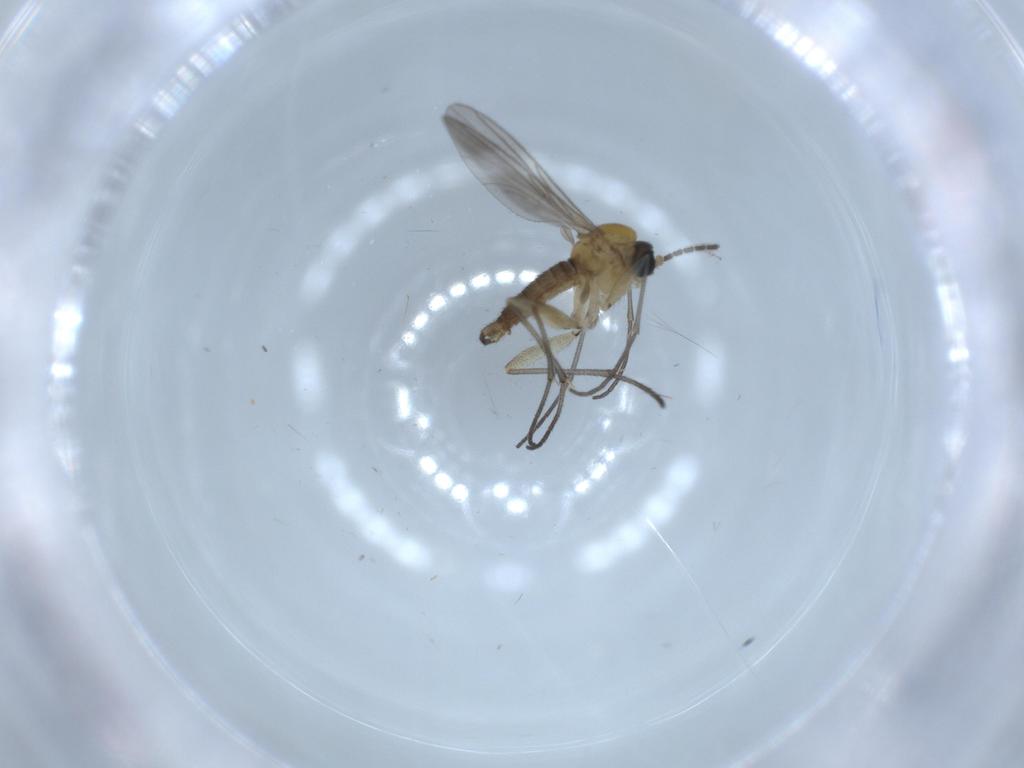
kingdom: Animalia
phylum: Arthropoda
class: Insecta
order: Diptera
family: Sciaridae
